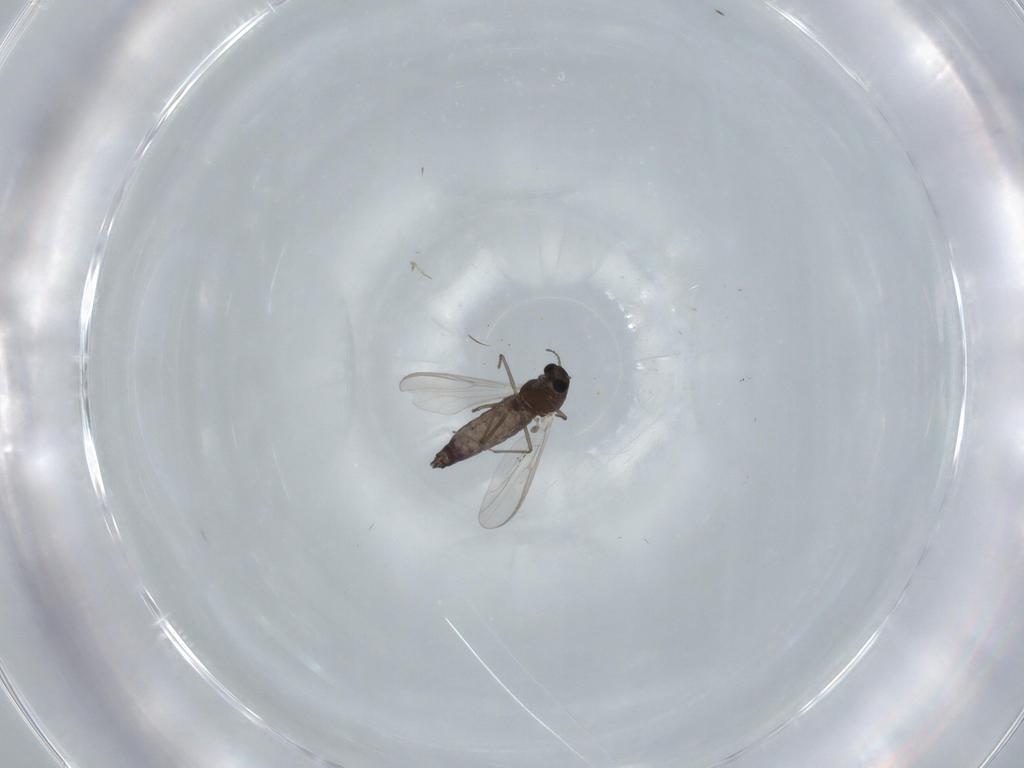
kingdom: Animalia
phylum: Arthropoda
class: Insecta
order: Diptera
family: Chironomidae
